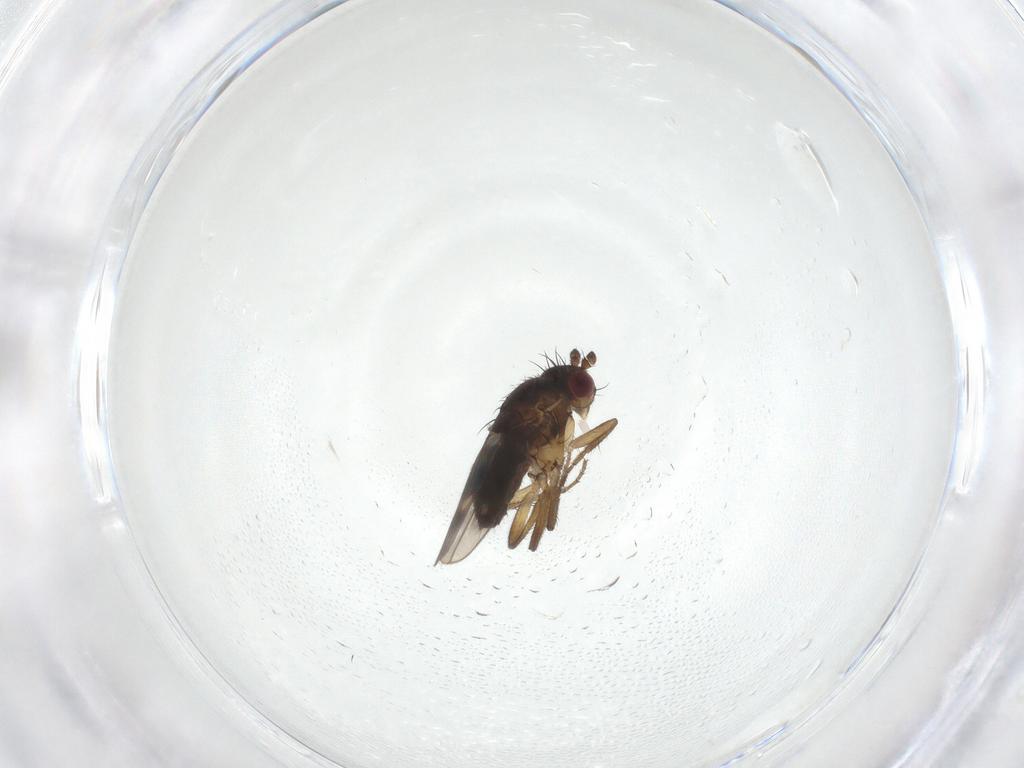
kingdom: Animalia
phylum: Arthropoda
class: Insecta
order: Diptera
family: Sphaeroceridae
